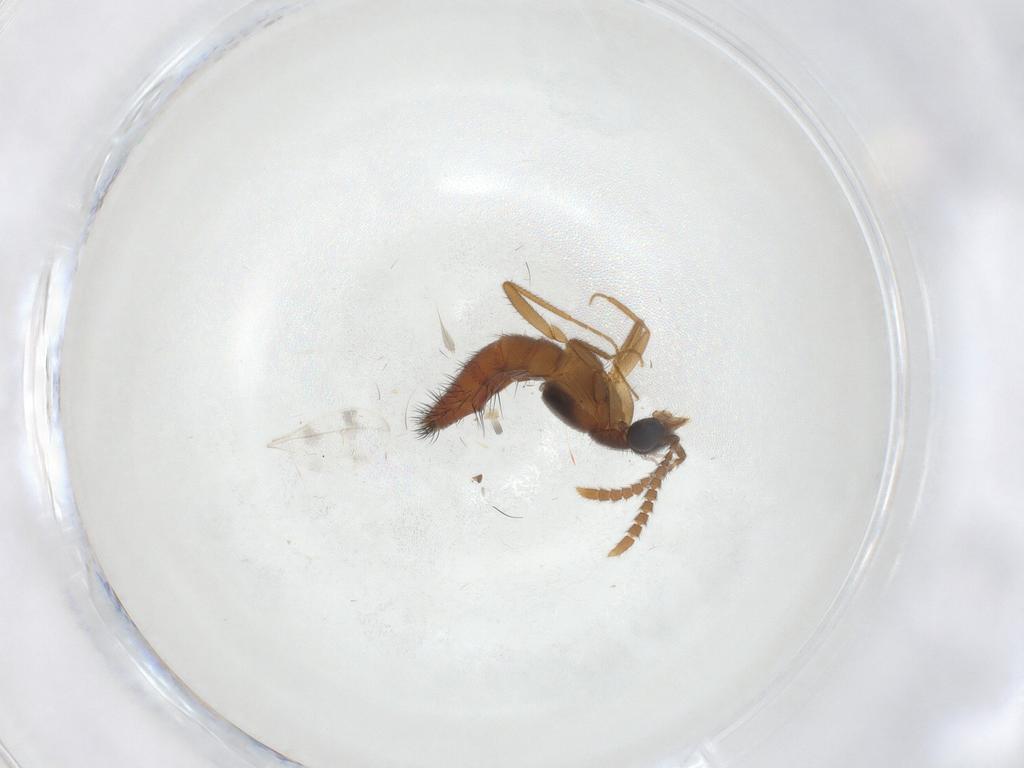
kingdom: Animalia
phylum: Arthropoda
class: Insecta
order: Coleoptera
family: Staphylinidae
